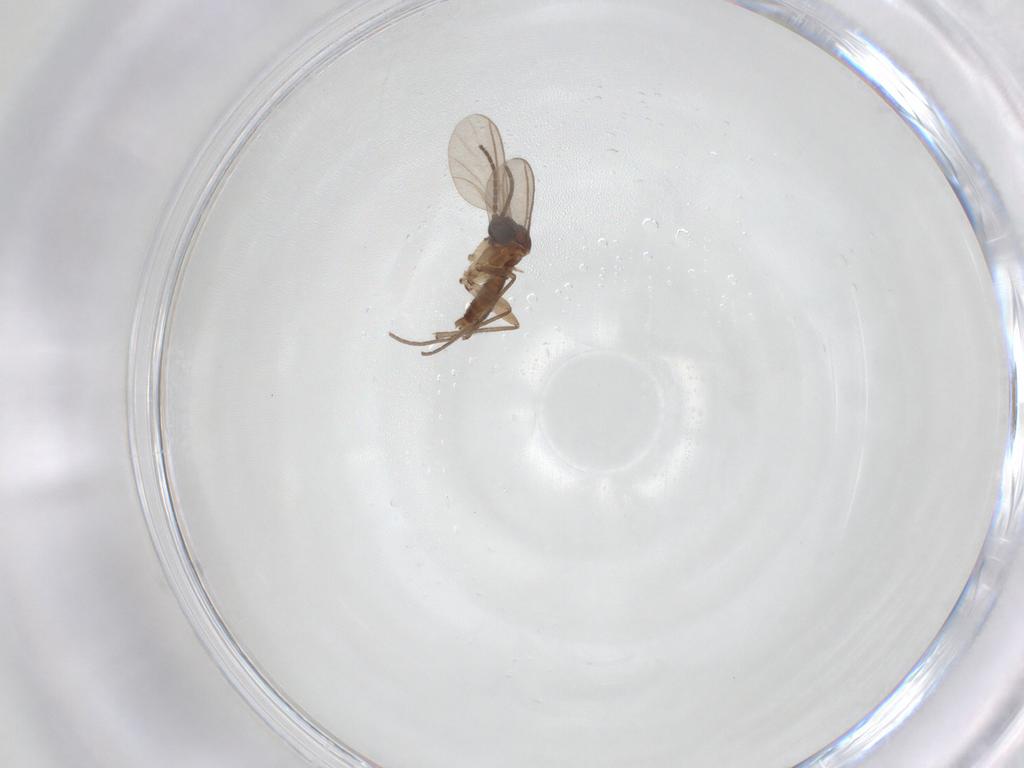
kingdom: Animalia
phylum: Arthropoda
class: Insecta
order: Diptera
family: Sciaridae
